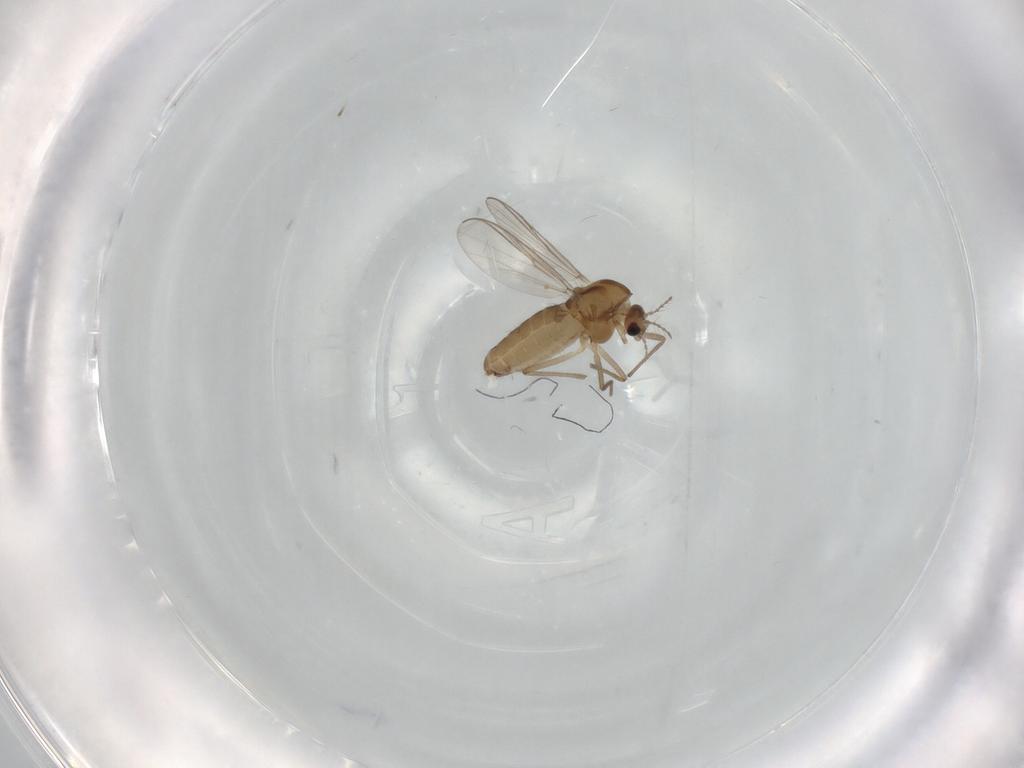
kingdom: Animalia
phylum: Arthropoda
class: Insecta
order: Diptera
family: Chironomidae
